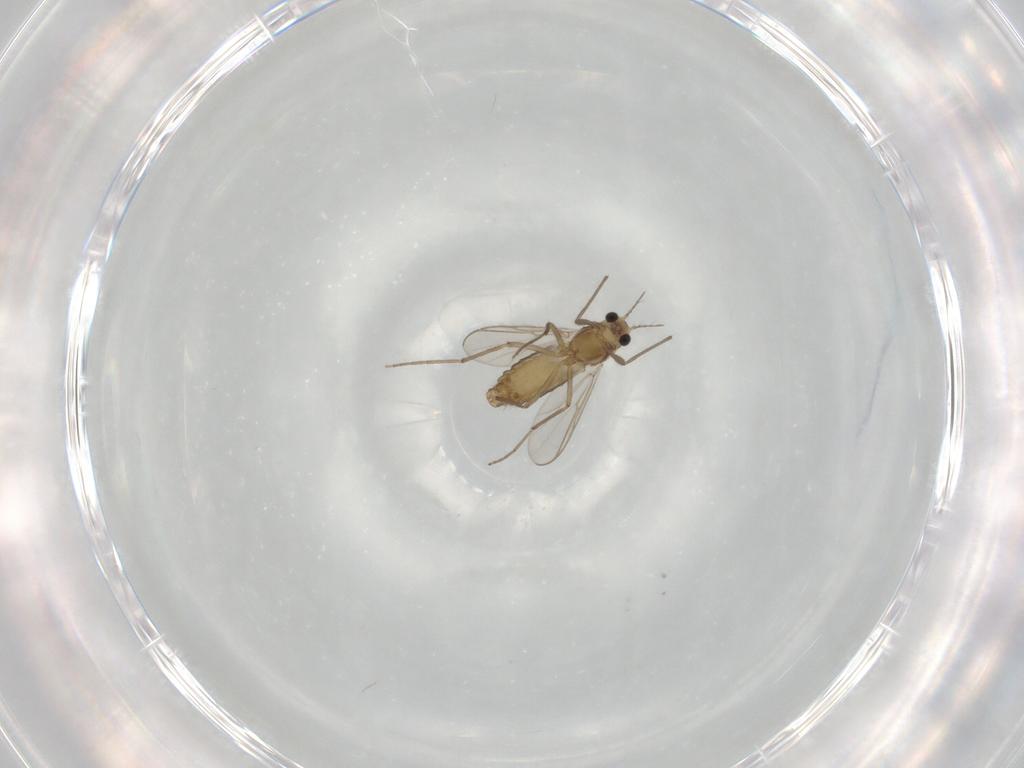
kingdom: Animalia
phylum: Arthropoda
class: Insecta
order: Diptera
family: Chironomidae
